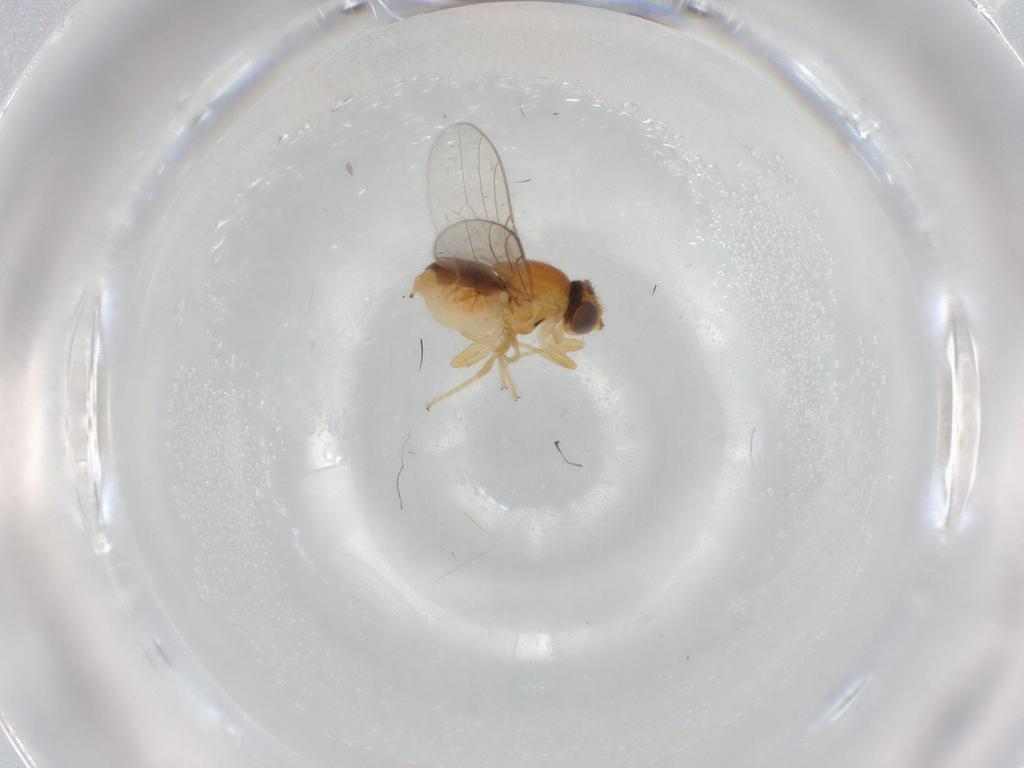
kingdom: Animalia
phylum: Arthropoda
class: Insecta
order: Diptera
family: Chloropidae
